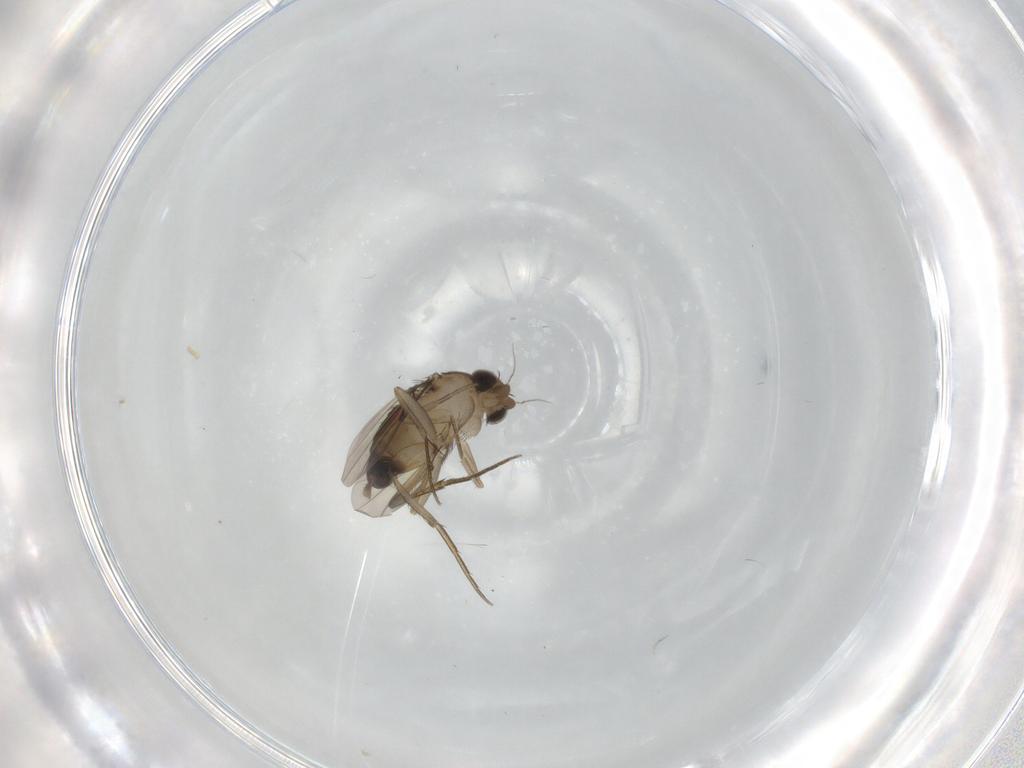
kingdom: Animalia
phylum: Arthropoda
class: Insecta
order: Diptera
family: Phoridae
